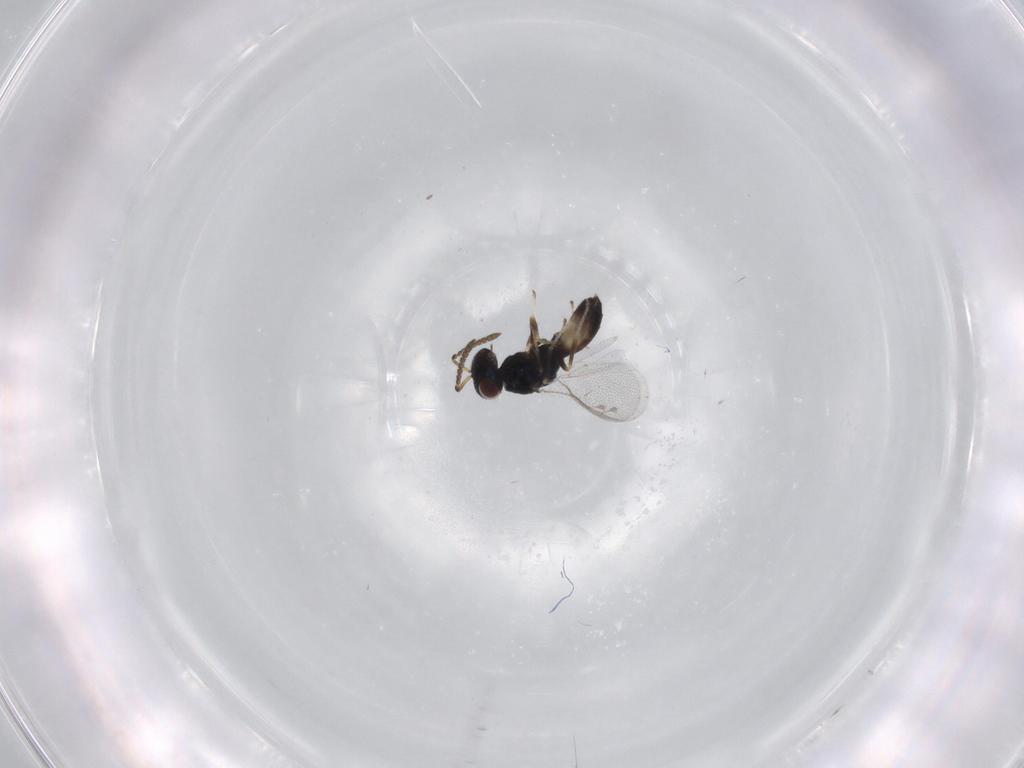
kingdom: Animalia
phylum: Arthropoda
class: Insecta
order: Hymenoptera
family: Pteromalidae
